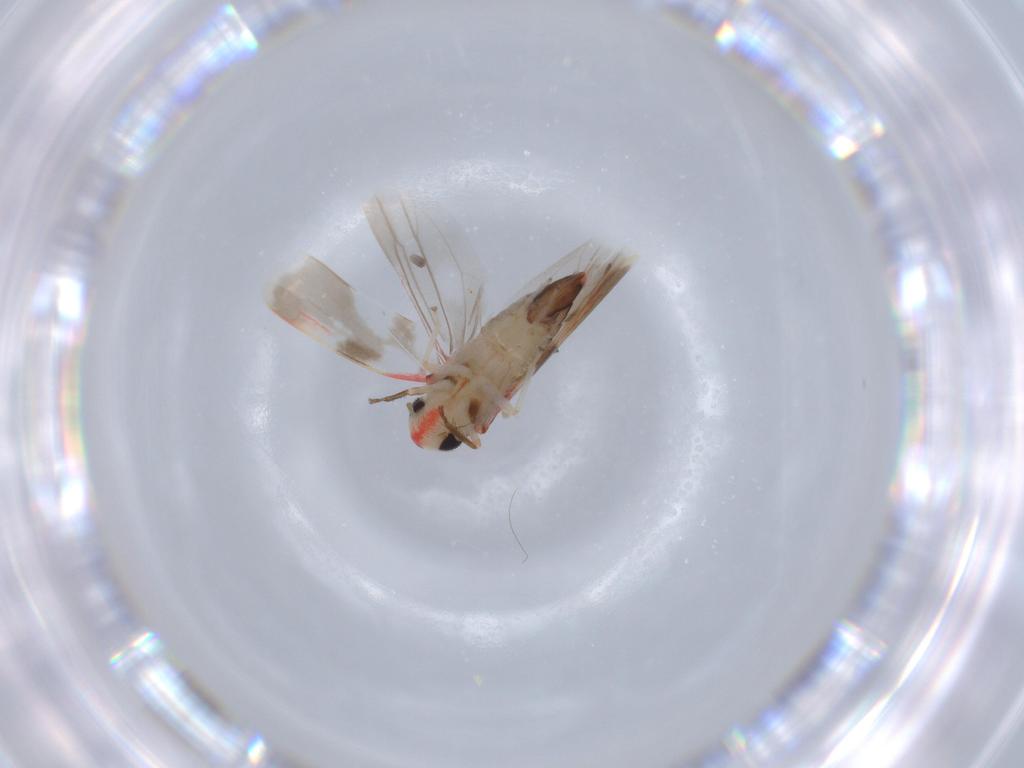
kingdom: Animalia
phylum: Arthropoda
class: Insecta
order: Hemiptera
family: Cicadellidae
